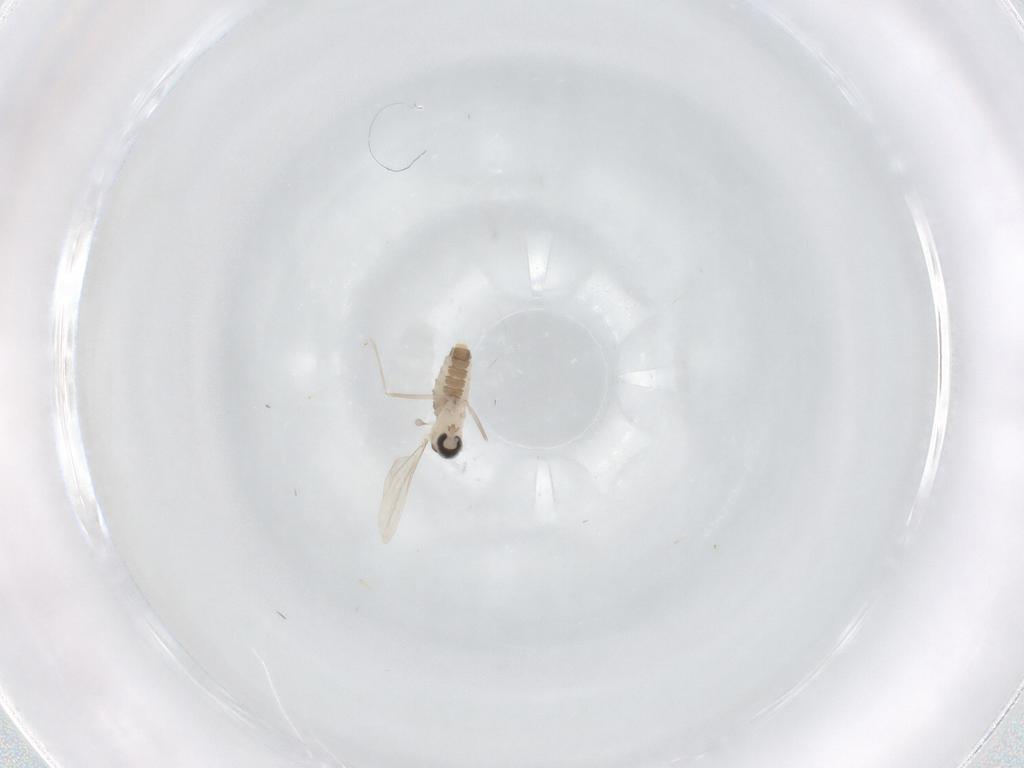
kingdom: Animalia
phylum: Arthropoda
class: Insecta
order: Diptera
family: Cecidomyiidae
